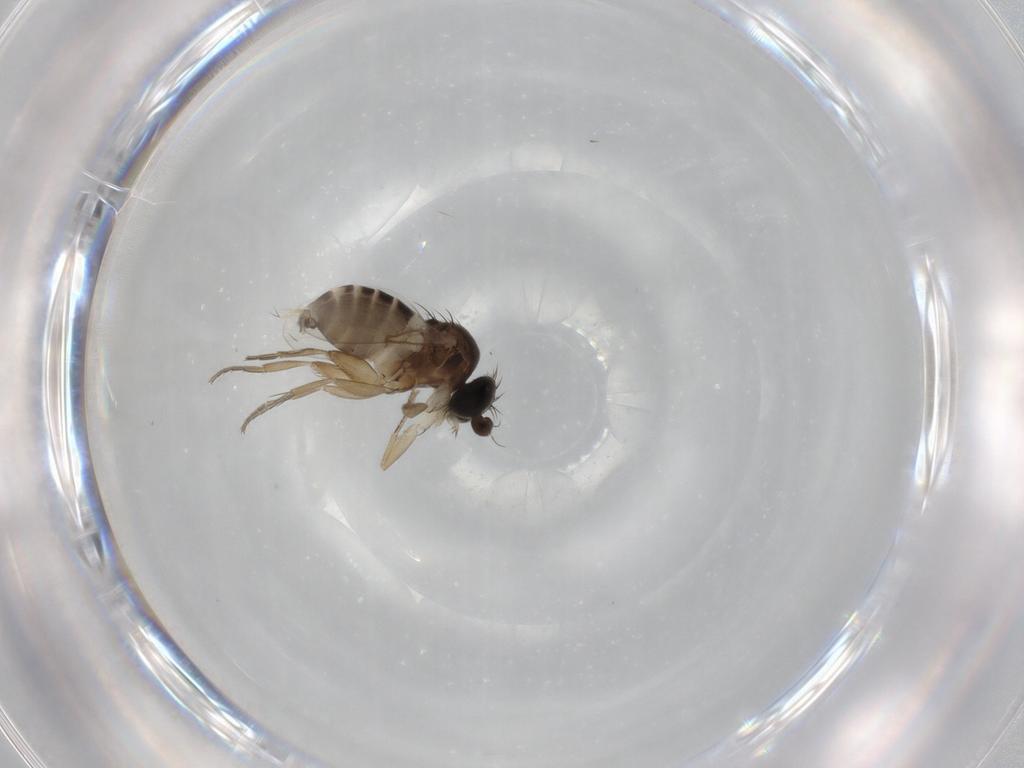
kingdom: Animalia
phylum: Arthropoda
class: Insecta
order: Diptera
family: Phoridae
